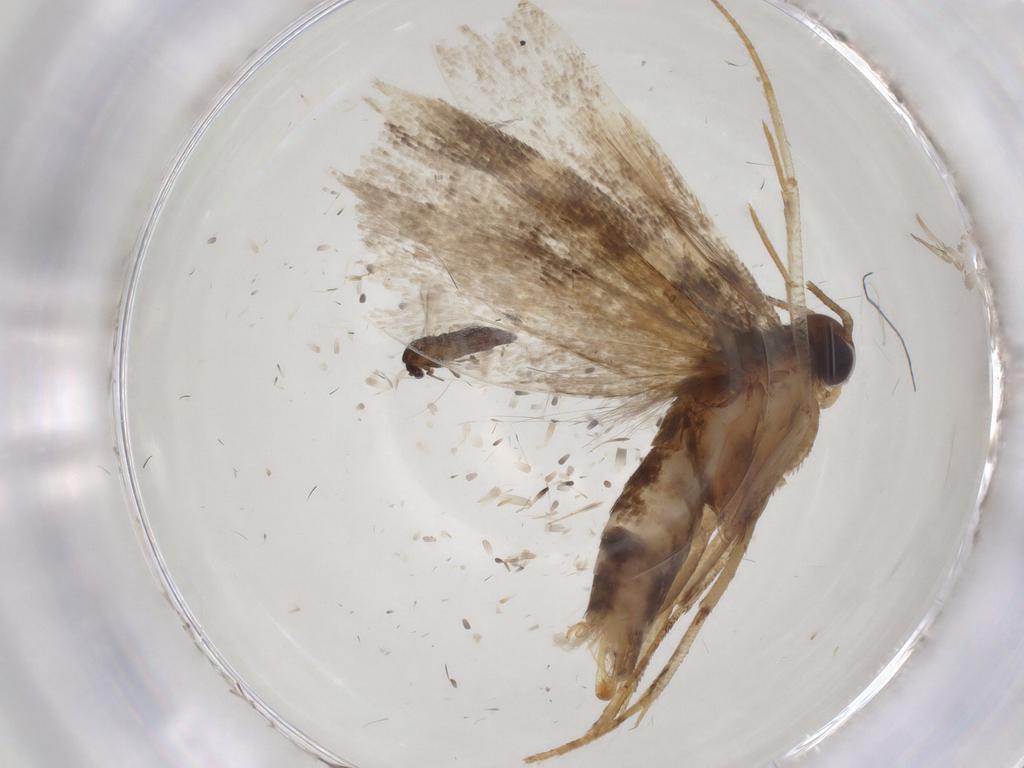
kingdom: Animalia
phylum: Arthropoda
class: Insecta
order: Lepidoptera
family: Gelechiidae
